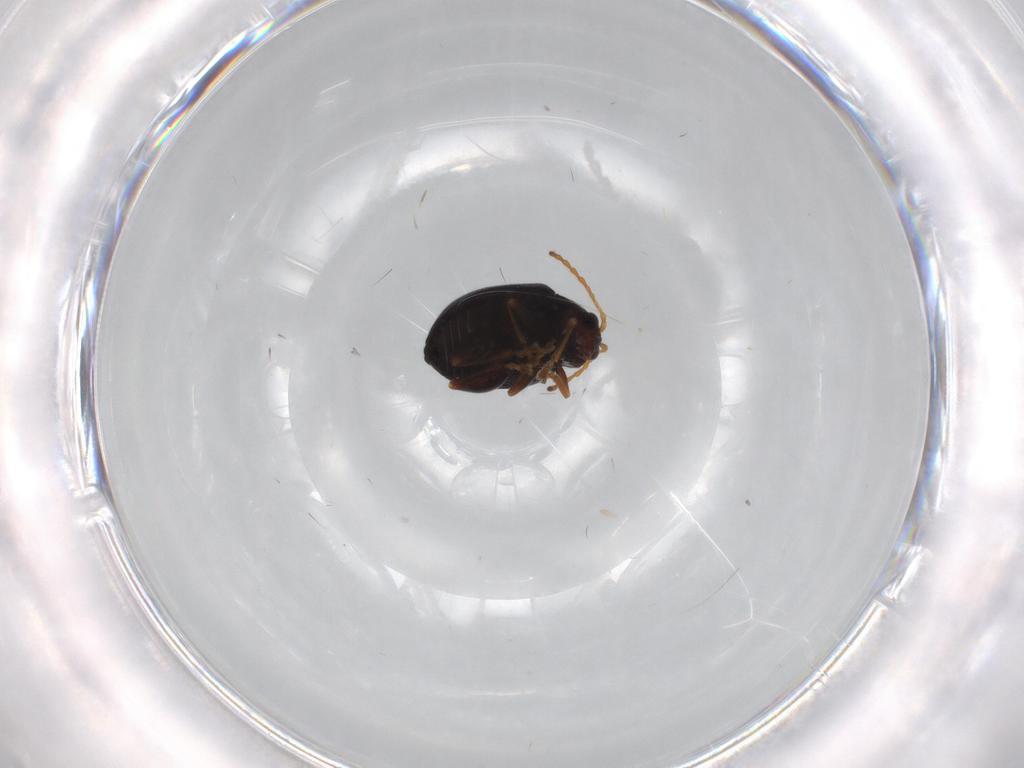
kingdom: Animalia
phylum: Arthropoda
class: Insecta
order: Coleoptera
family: Chrysomelidae
